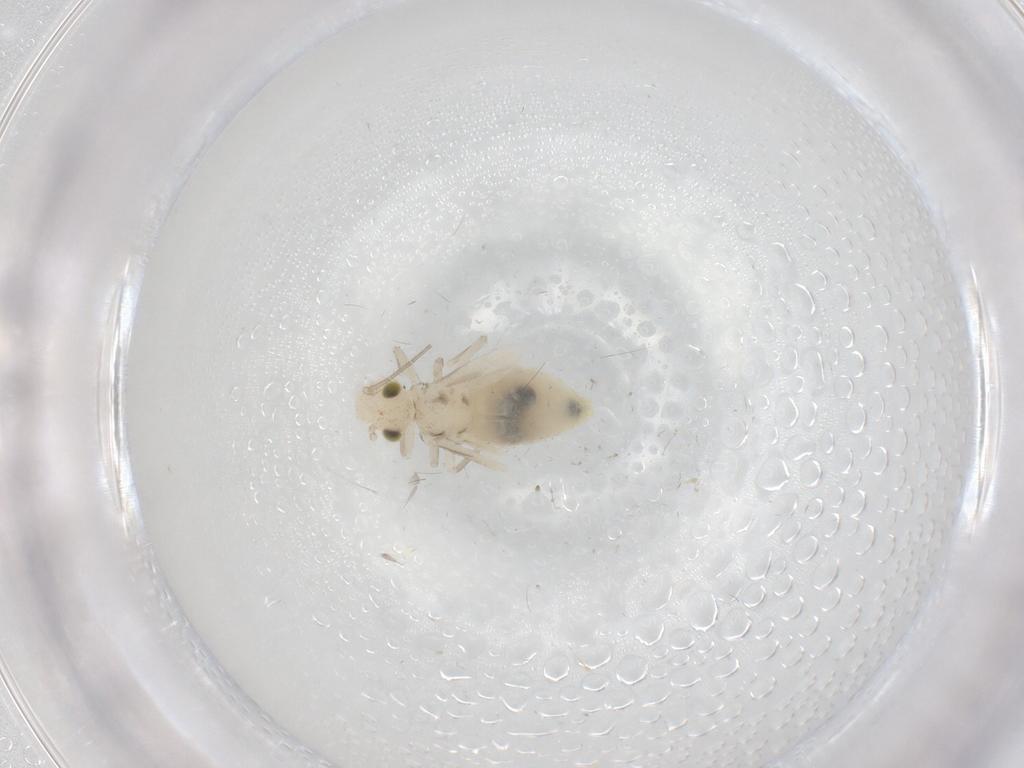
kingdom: Animalia
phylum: Arthropoda
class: Insecta
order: Psocodea
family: Caeciliusidae
